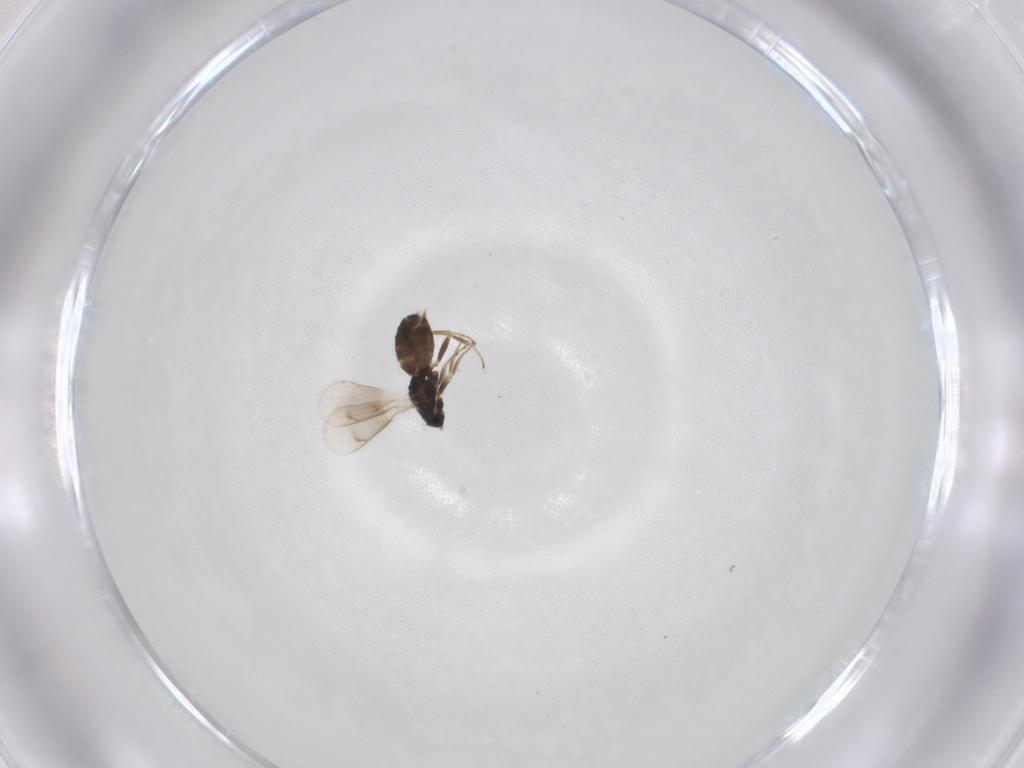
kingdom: Animalia
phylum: Arthropoda
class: Insecta
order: Hymenoptera
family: Eulophidae
